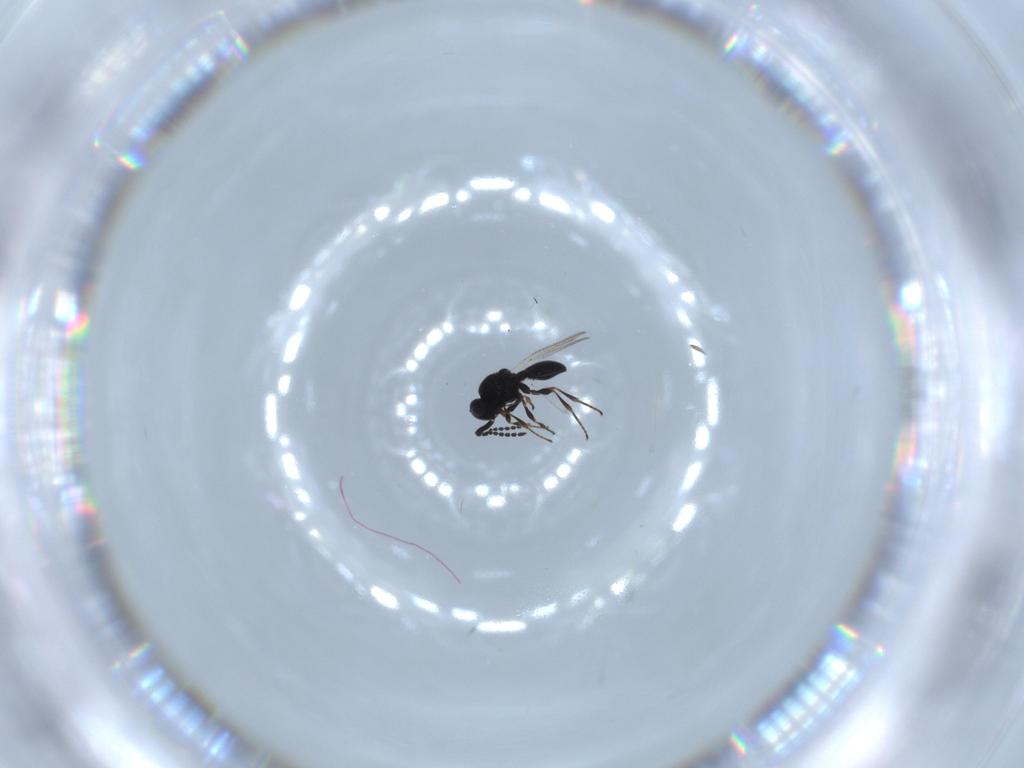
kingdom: Animalia
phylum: Arthropoda
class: Insecta
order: Hymenoptera
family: Platygastridae
